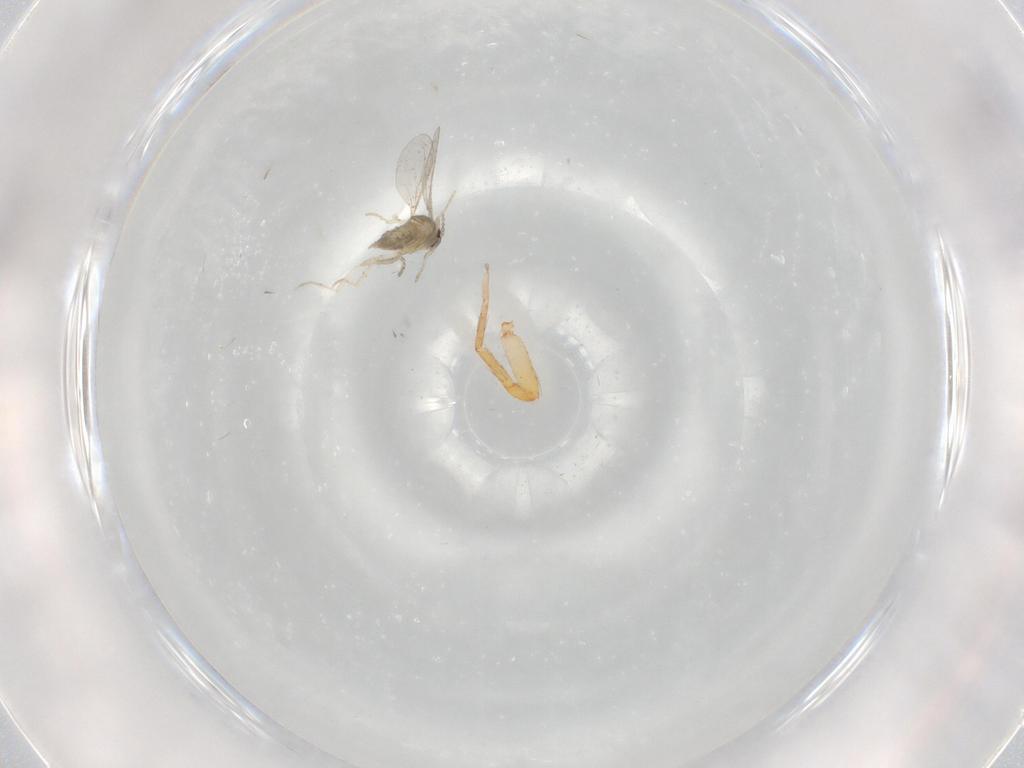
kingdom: Animalia
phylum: Arthropoda
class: Insecta
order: Diptera
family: Cecidomyiidae
